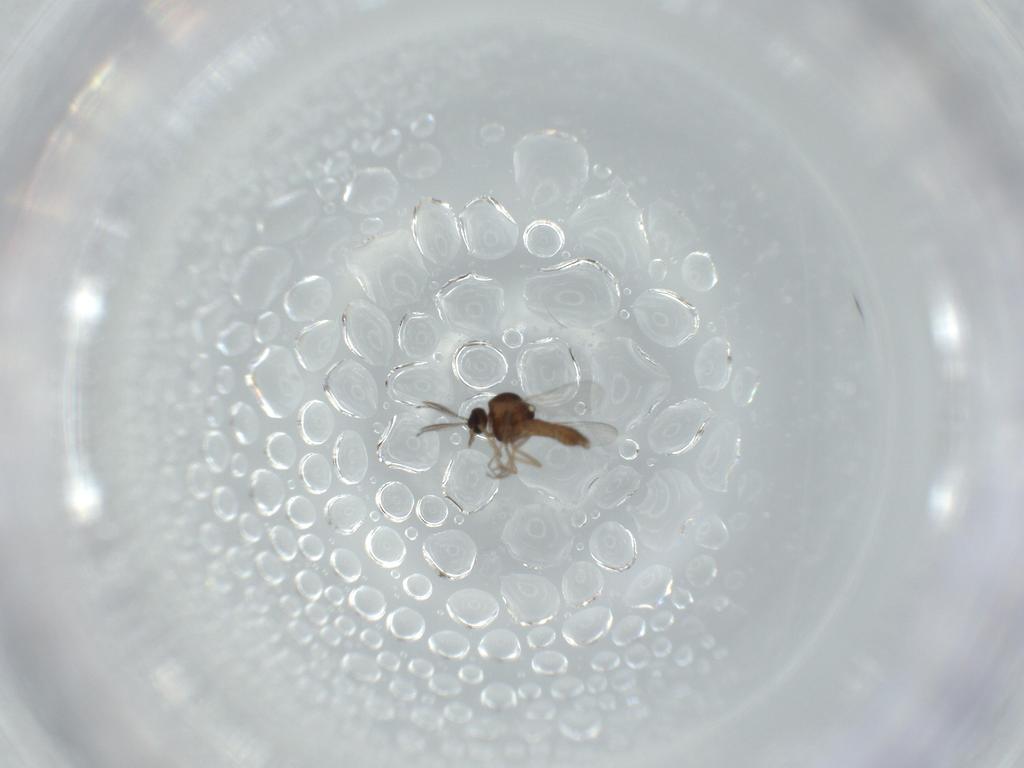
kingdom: Animalia
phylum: Arthropoda
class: Insecta
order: Diptera
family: Ceratopogonidae
